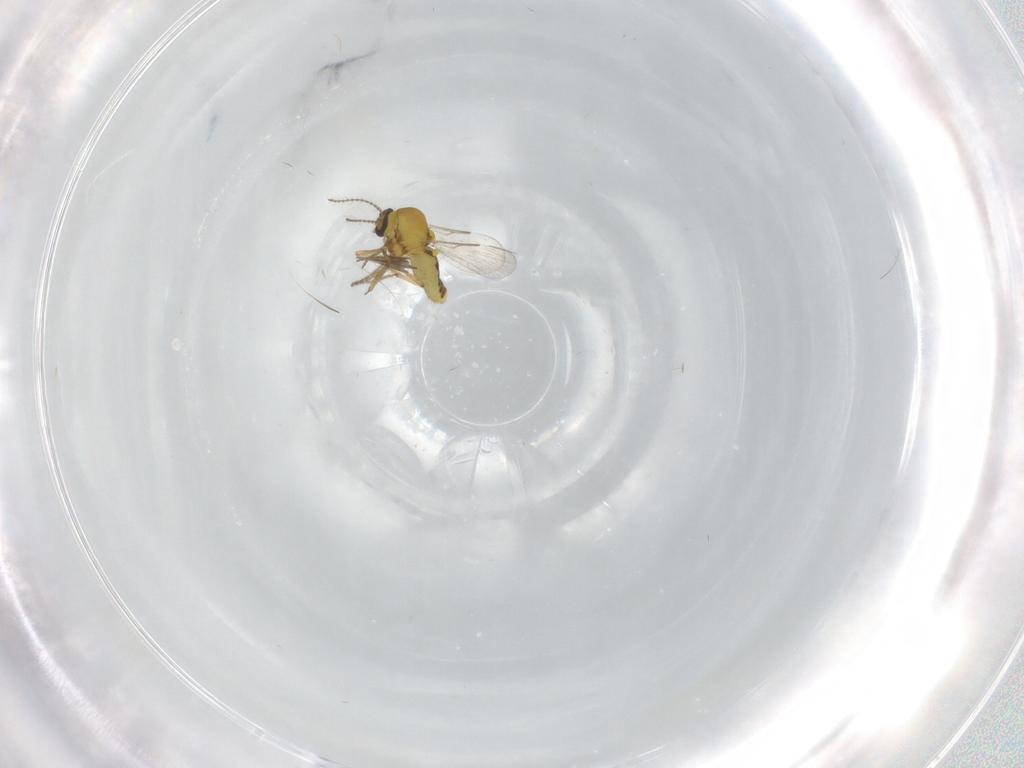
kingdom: Animalia
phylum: Arthropoda
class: Insecta
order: Diptera
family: Ceratopogonidae
